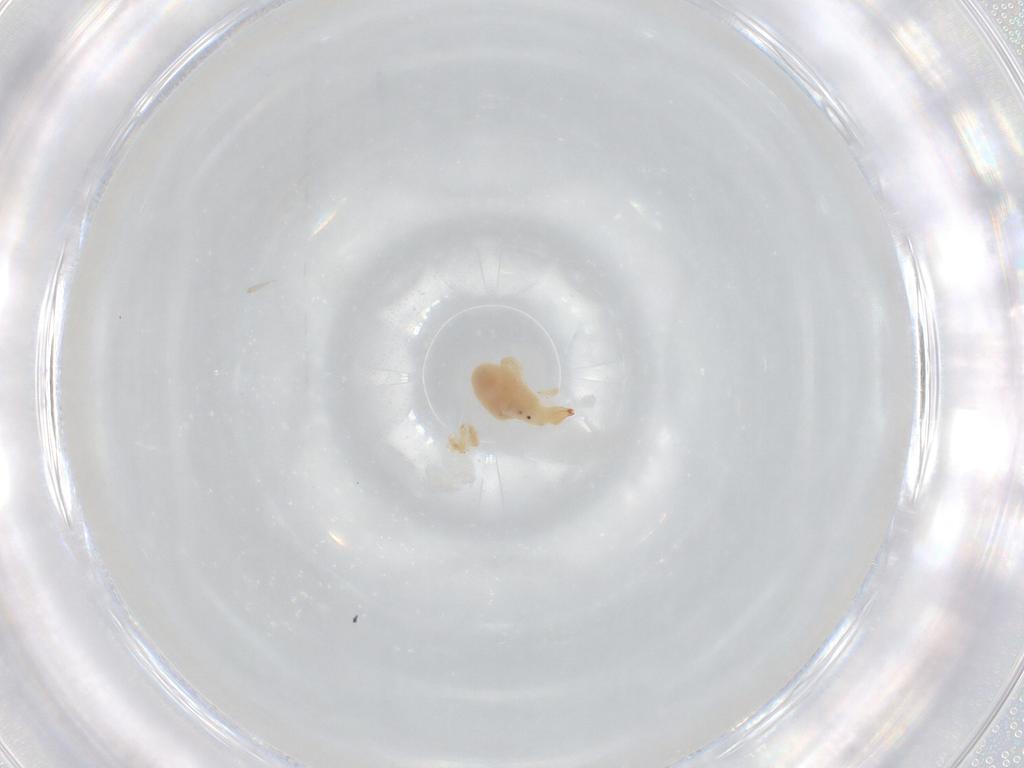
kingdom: Animalia
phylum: Arthropoda
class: Arachnida
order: Trombidiformes
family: Bdellidae
